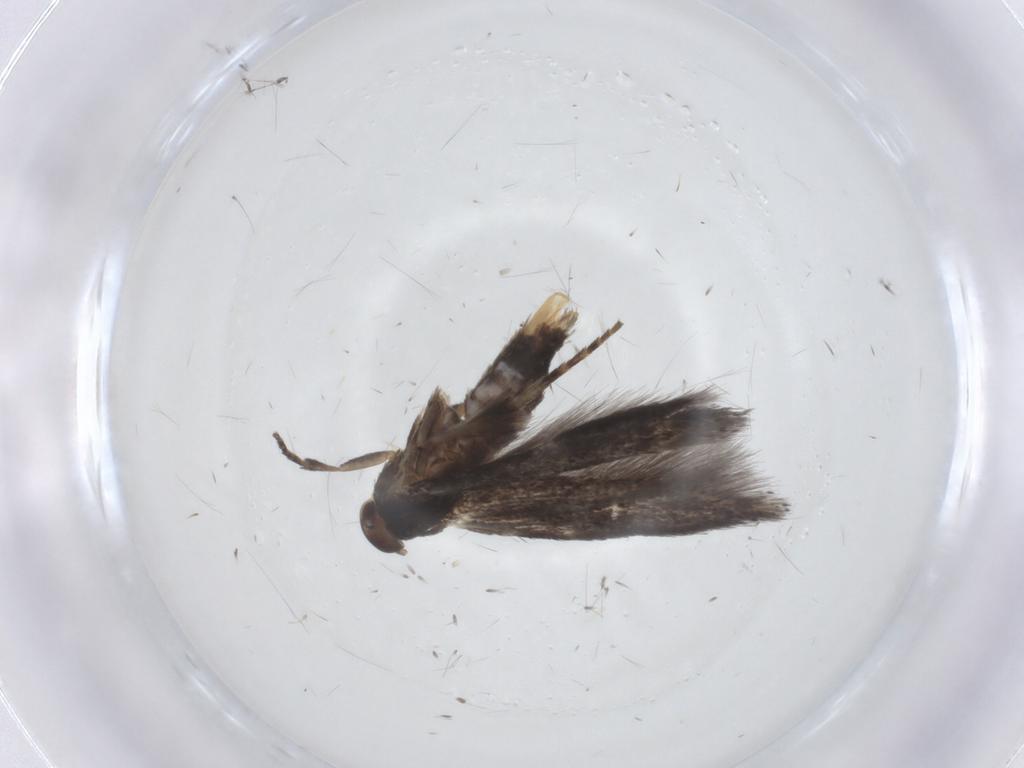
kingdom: Animalia
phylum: Arthropoda
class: Insecta
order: Lepidoptera
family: Elachistidae
